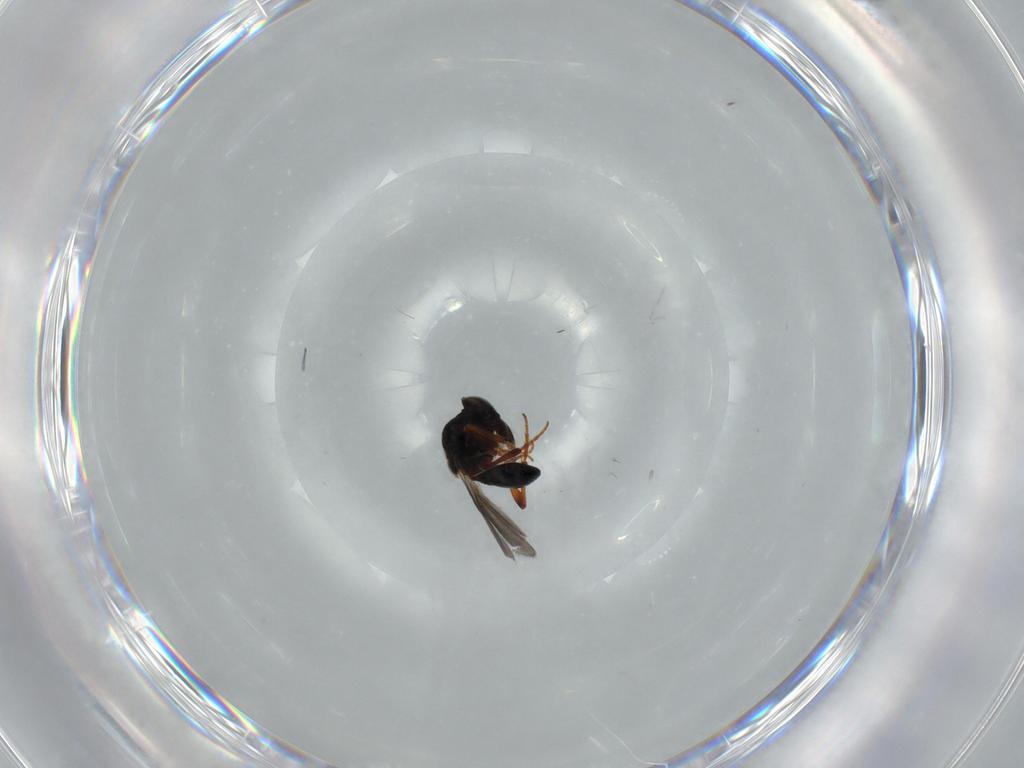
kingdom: Animalia
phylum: Arthropoda
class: Insecta
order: Hymenoptera
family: Platygastridae
